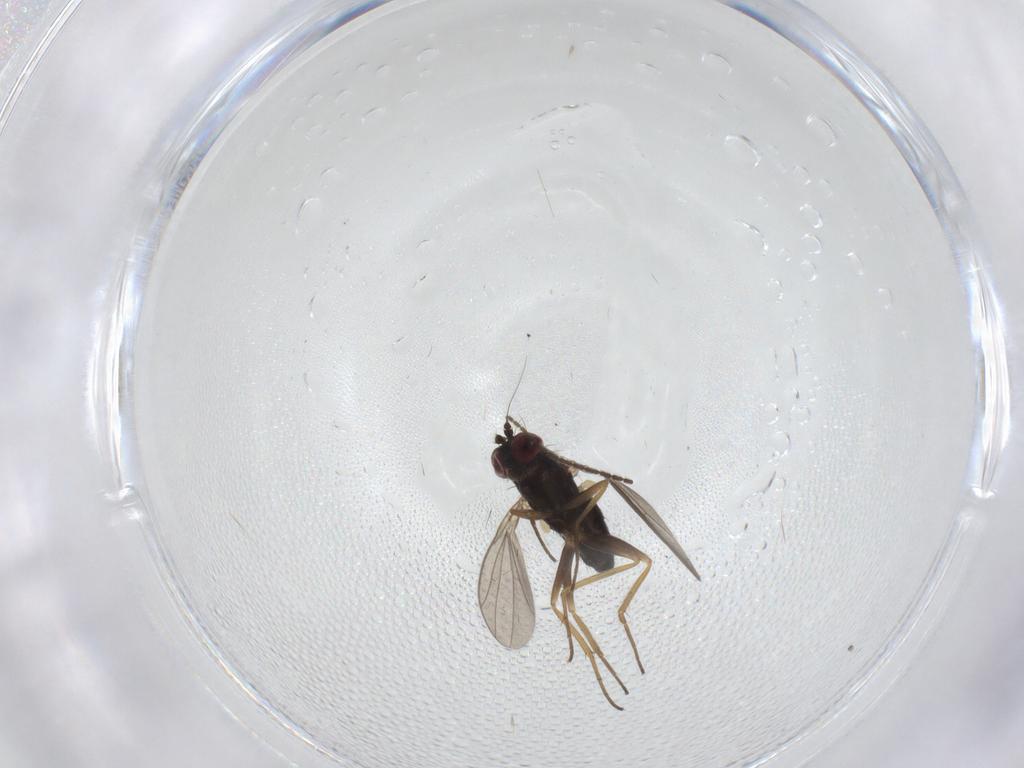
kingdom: Animalia
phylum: Arthropoda
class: Insecta
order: Diptera
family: Dolichopodidae
